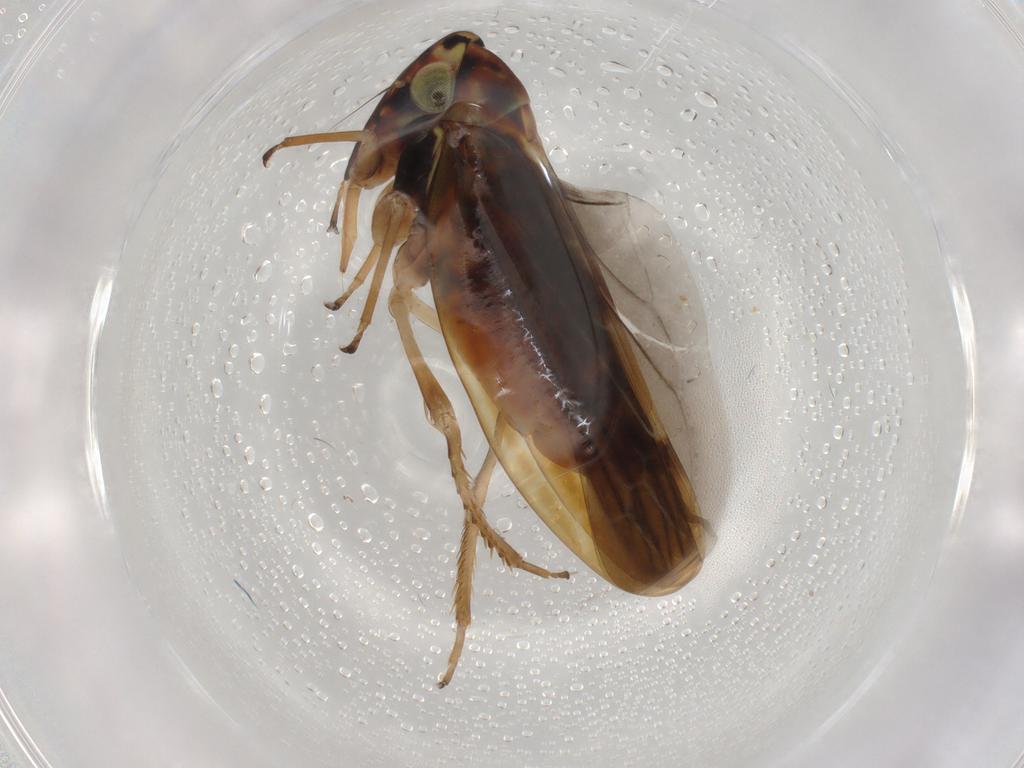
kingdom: Animalia
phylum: Arthropoda
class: Insecta
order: Hemiptera
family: Cicadellidae
